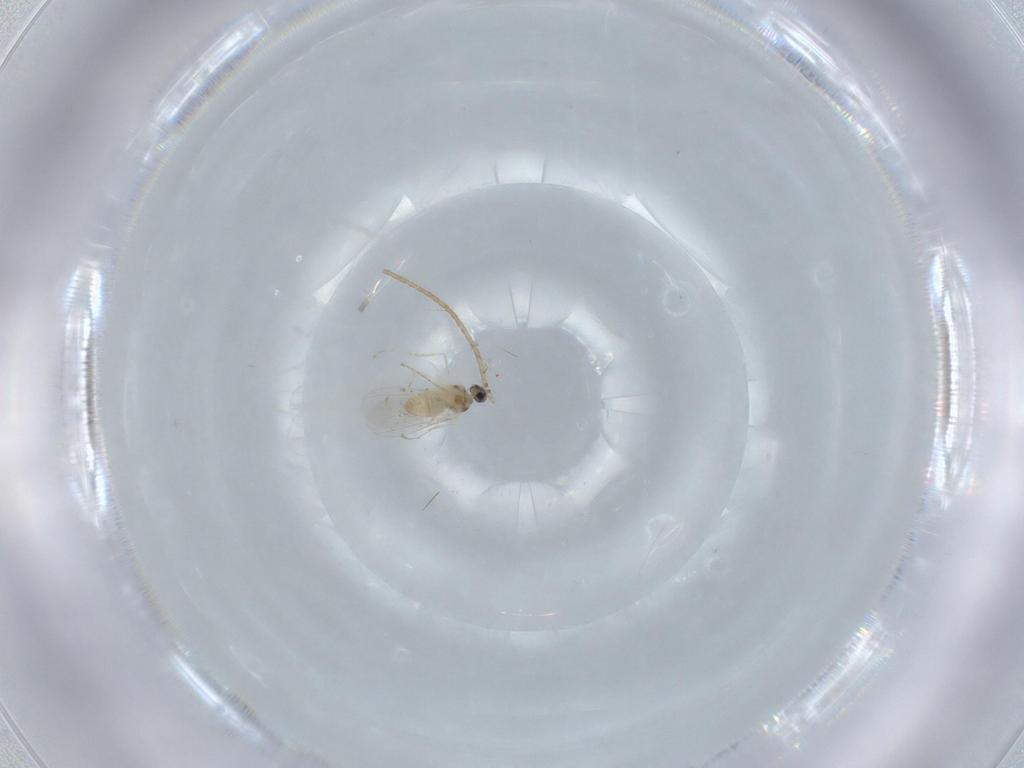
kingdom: Animalia
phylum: Arthropoda
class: Insecta
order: Diptera
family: Cecidomyiidae
